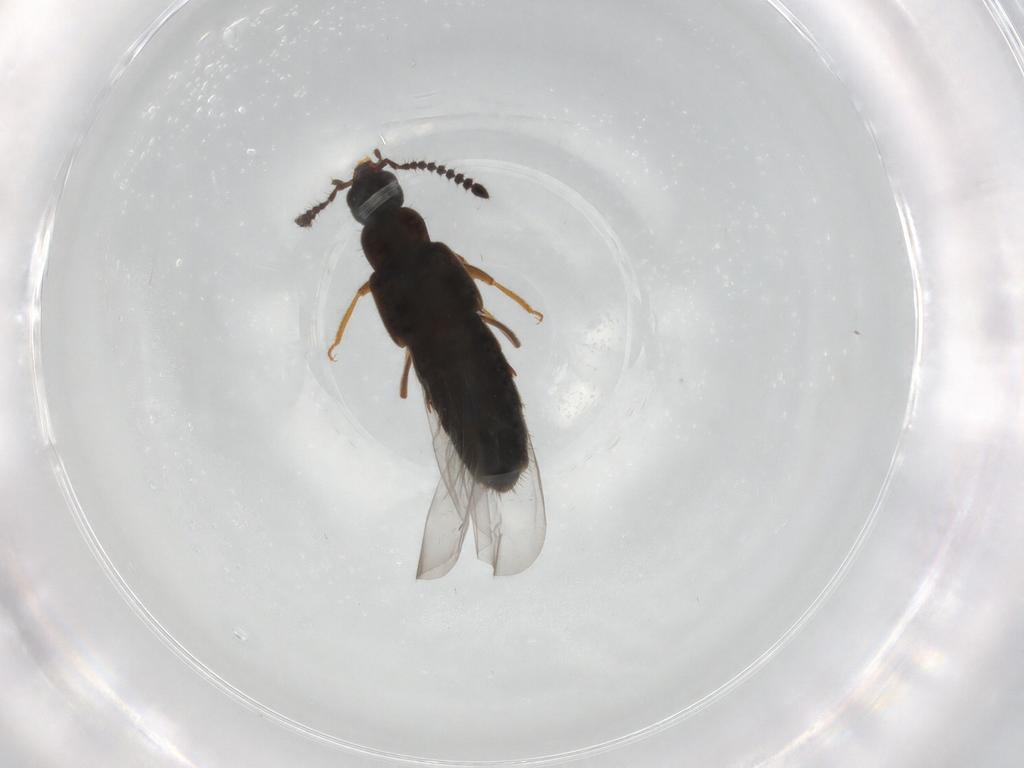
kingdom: Animalia
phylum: Arthropoda
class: Insecta
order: Coleoptera
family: Staphylinidae
